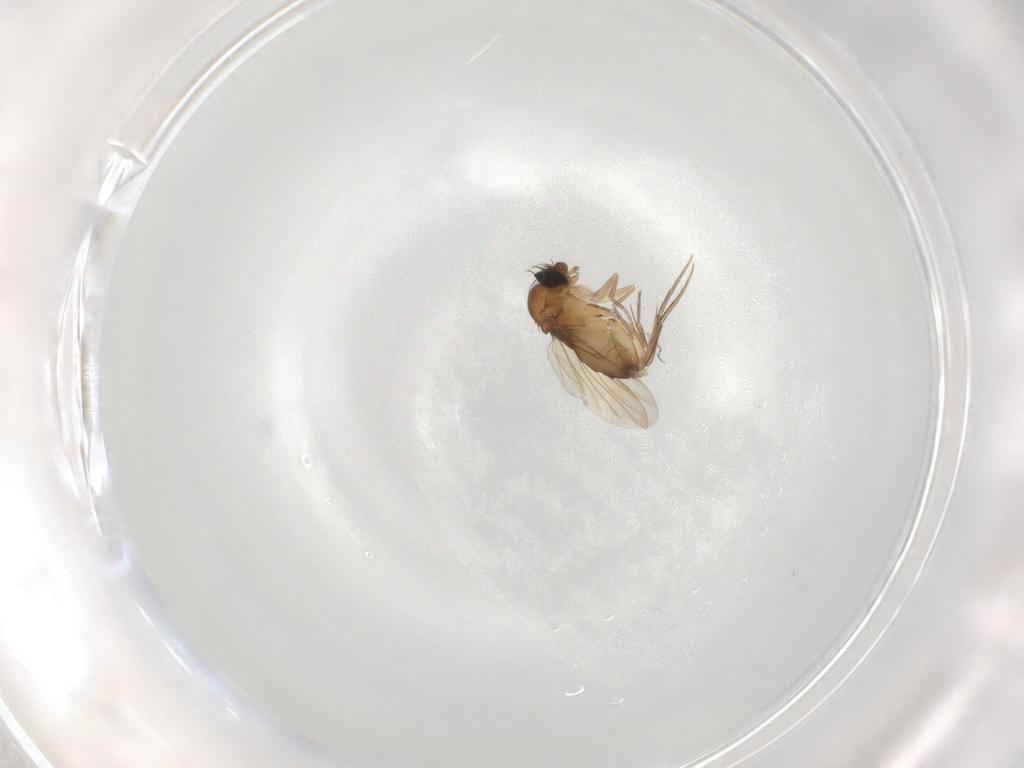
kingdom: Animalia
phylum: Arthropoda
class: Insecta
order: Diptera
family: Phoridae
